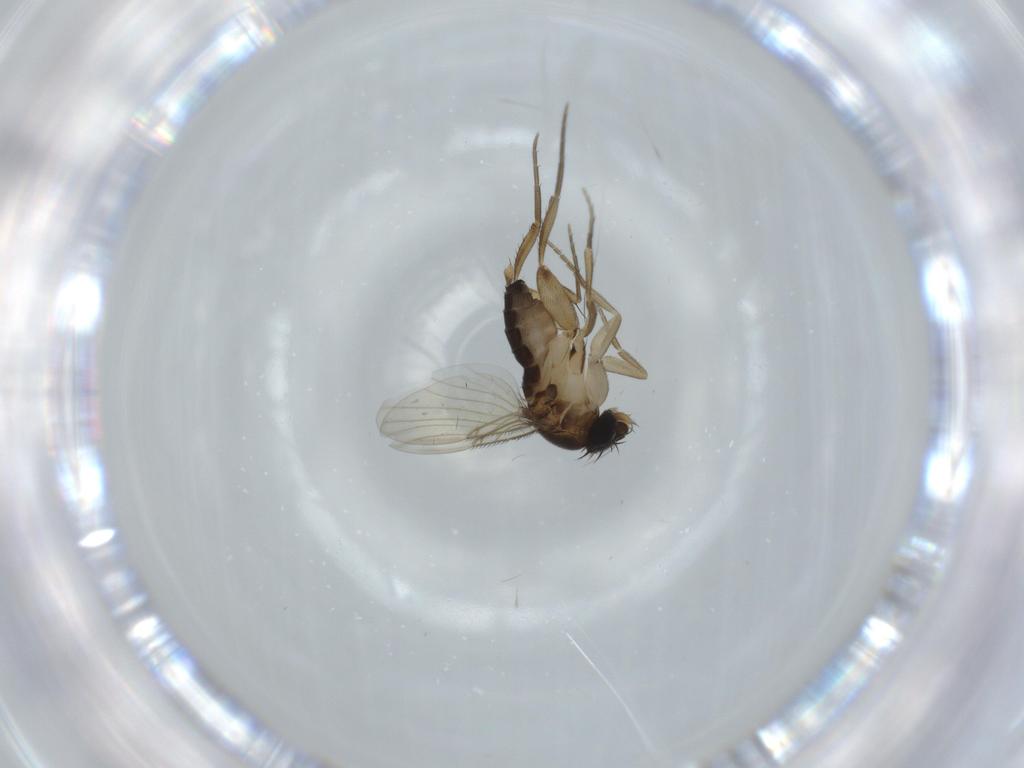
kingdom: Animalia
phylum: Arthropoda
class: Insecta
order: Diptera
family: Phoridae
